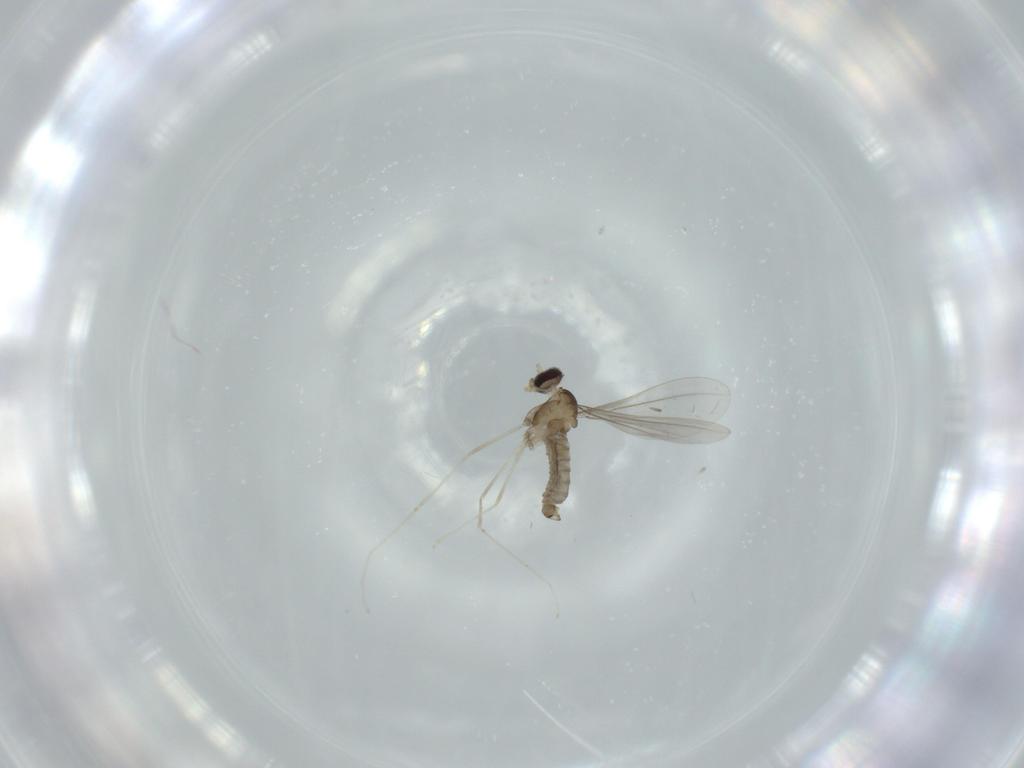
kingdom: Animalia
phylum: Arthropoda
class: Insecta
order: Diptera
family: Cecidomyiidae
